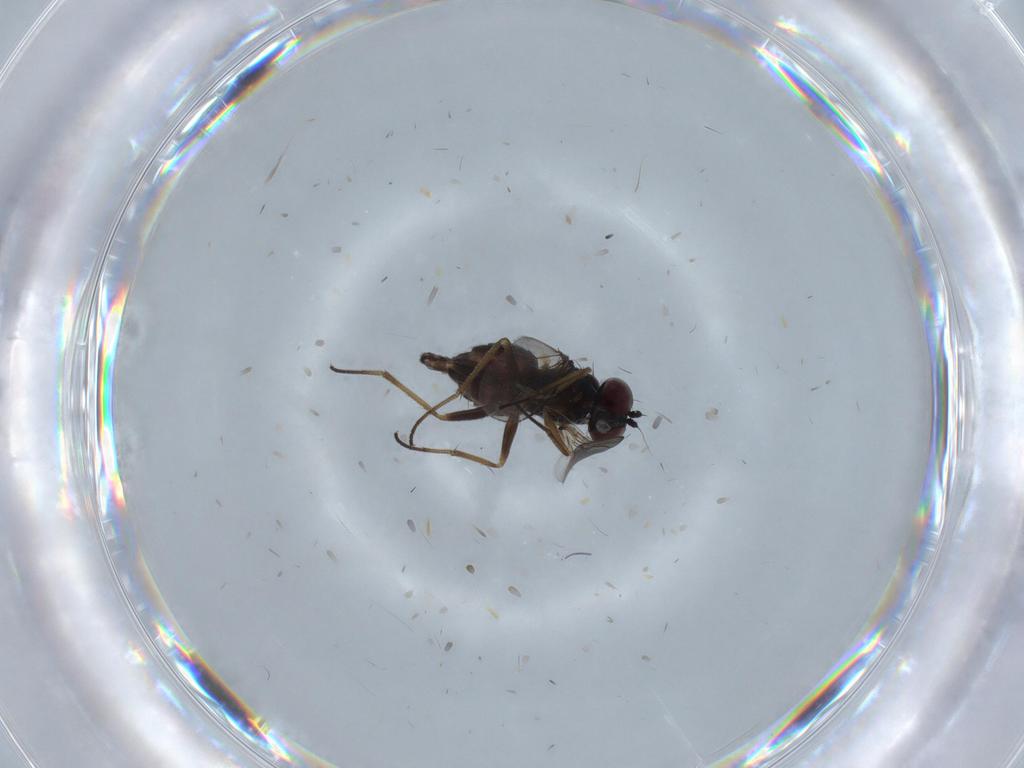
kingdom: Animalia
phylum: Arthropoda
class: Insecta
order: Diptera
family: Dolichopodidae
